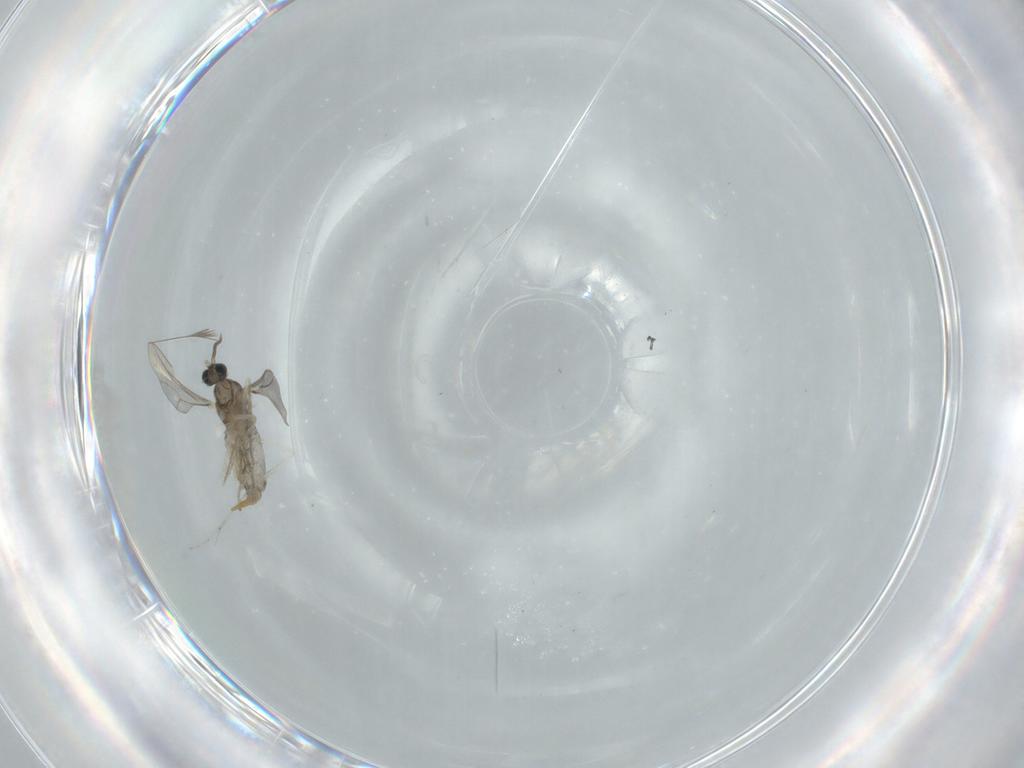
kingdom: Animalia
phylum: Arthropoda
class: Insecta
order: Diptera
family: Cecidomyiidae
